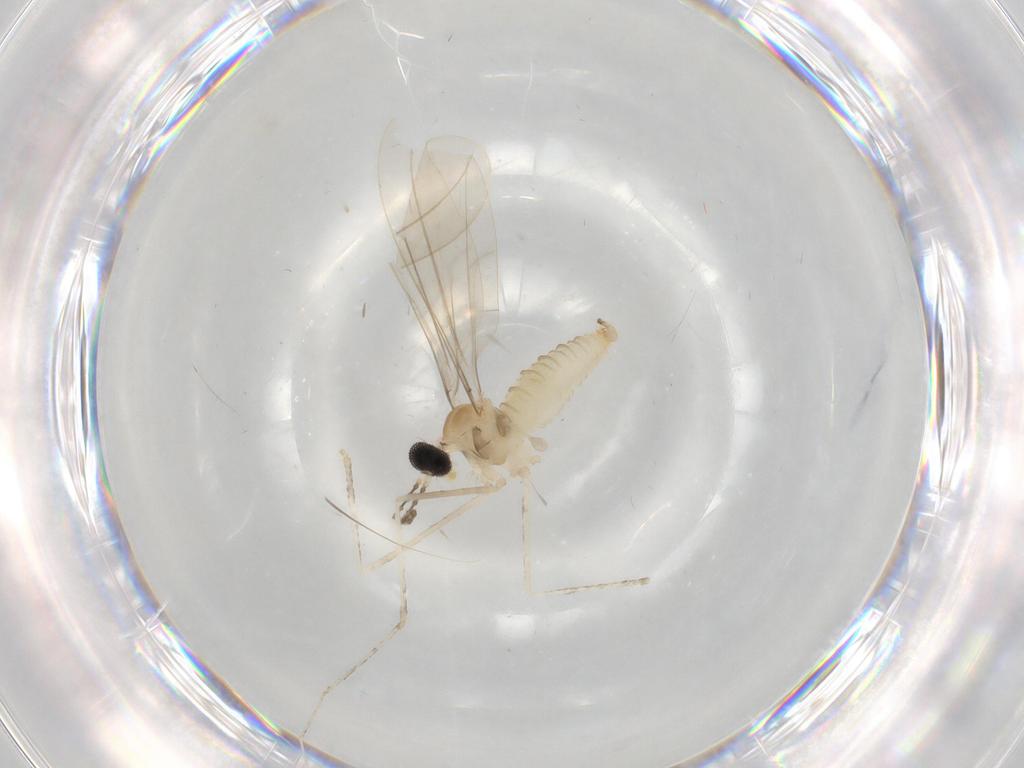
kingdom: Animalia
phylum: Arthropoda
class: Insecta
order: Diptera
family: Cecidomyiidae
